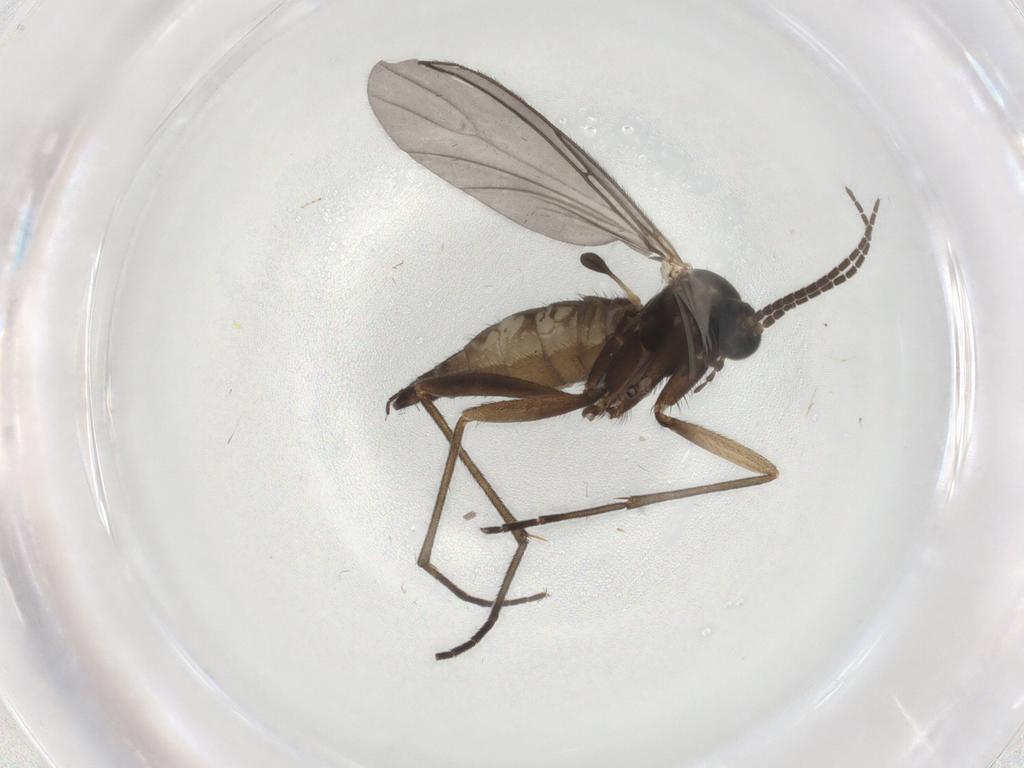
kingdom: Animalia
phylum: Arthropoda
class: Insecta
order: Diptera
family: Sciaridae
